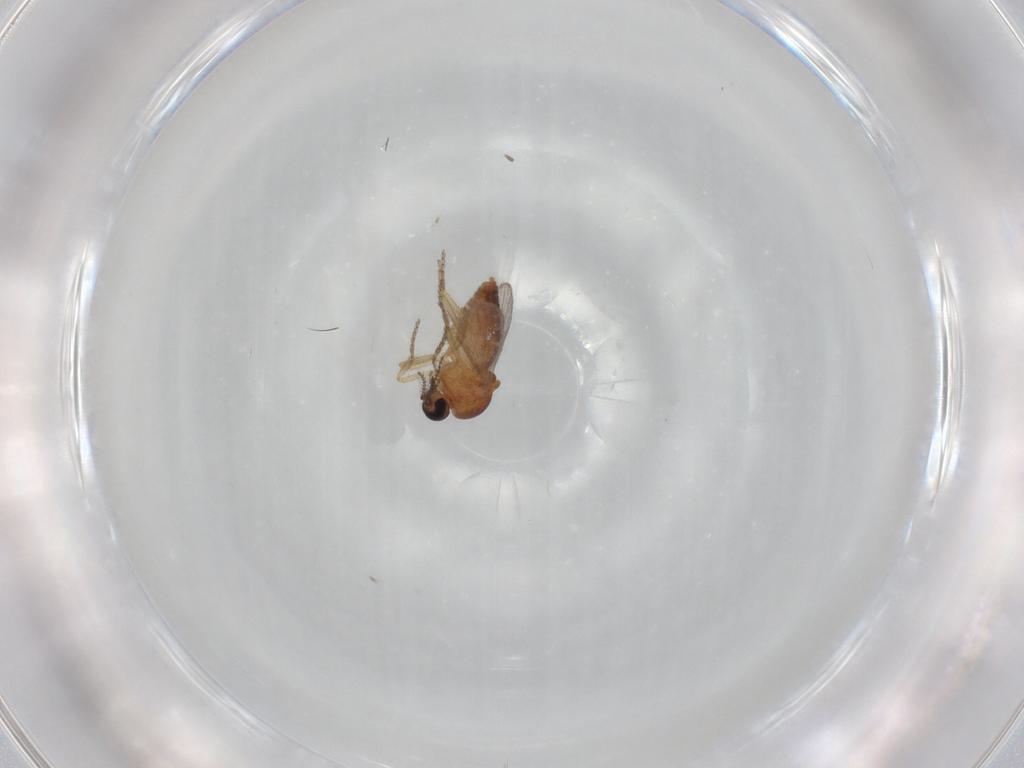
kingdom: Animalia
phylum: Arthropoda
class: Insecta
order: Diptera
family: Ceratopogonidae
